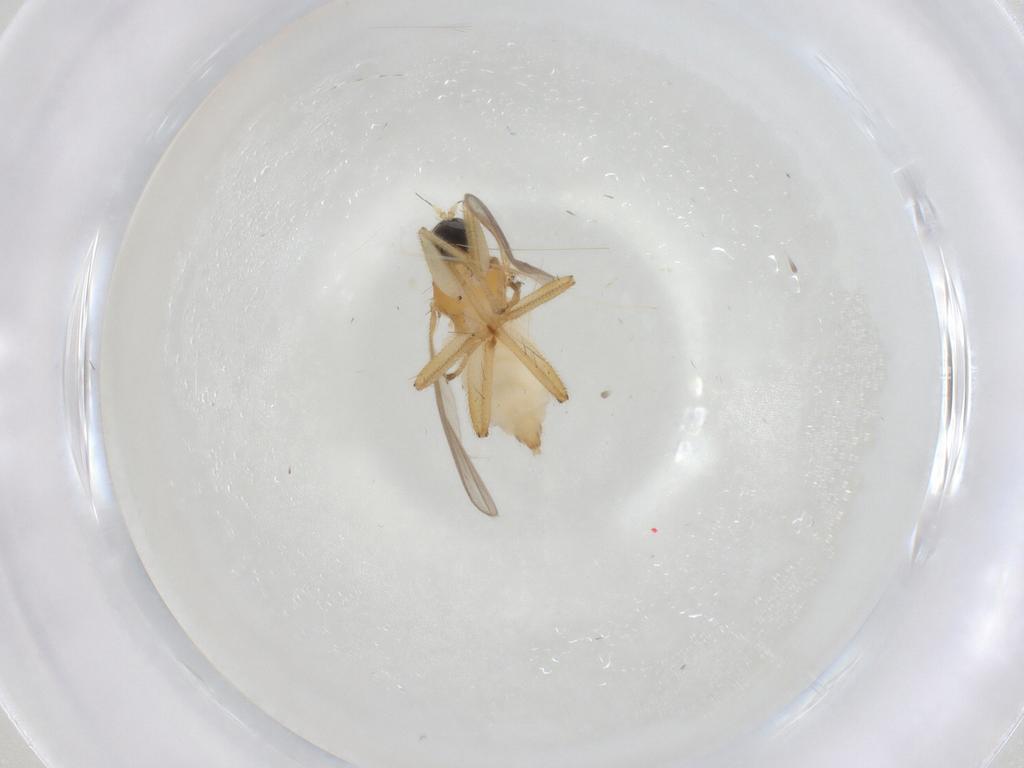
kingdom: Animalia
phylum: Arthropoda
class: Insecta
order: Diptera
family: Hybotidae
